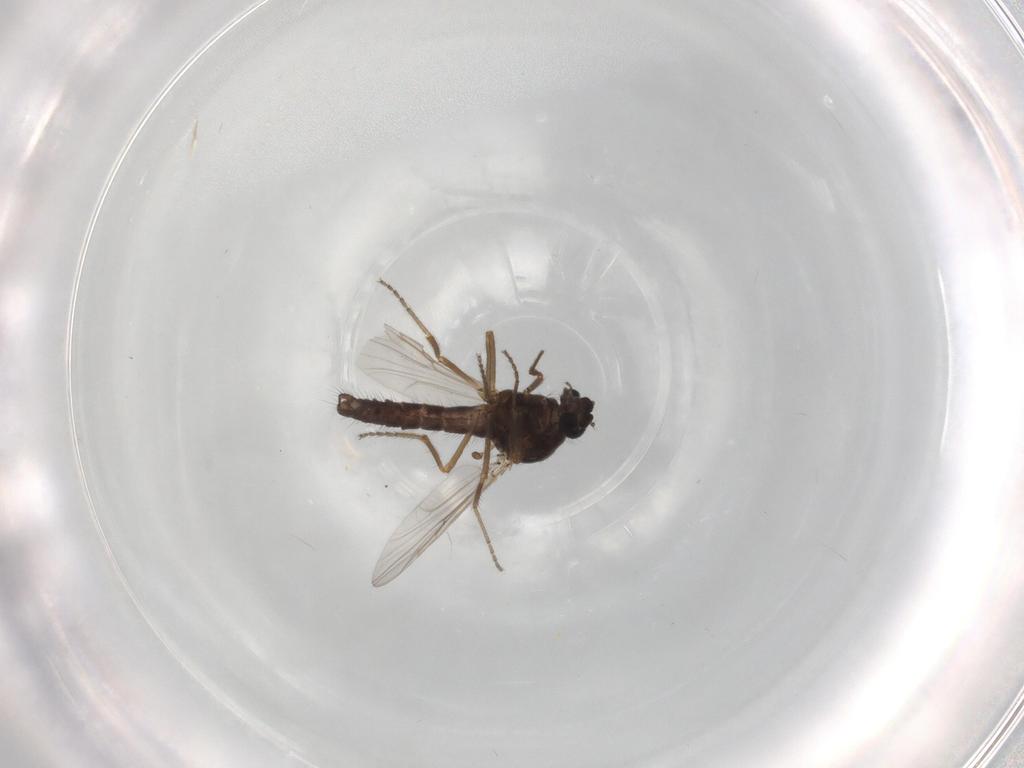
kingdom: Animalia
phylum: Arthropoda
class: Insecta
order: Diptera
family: Ceratopogonidae
